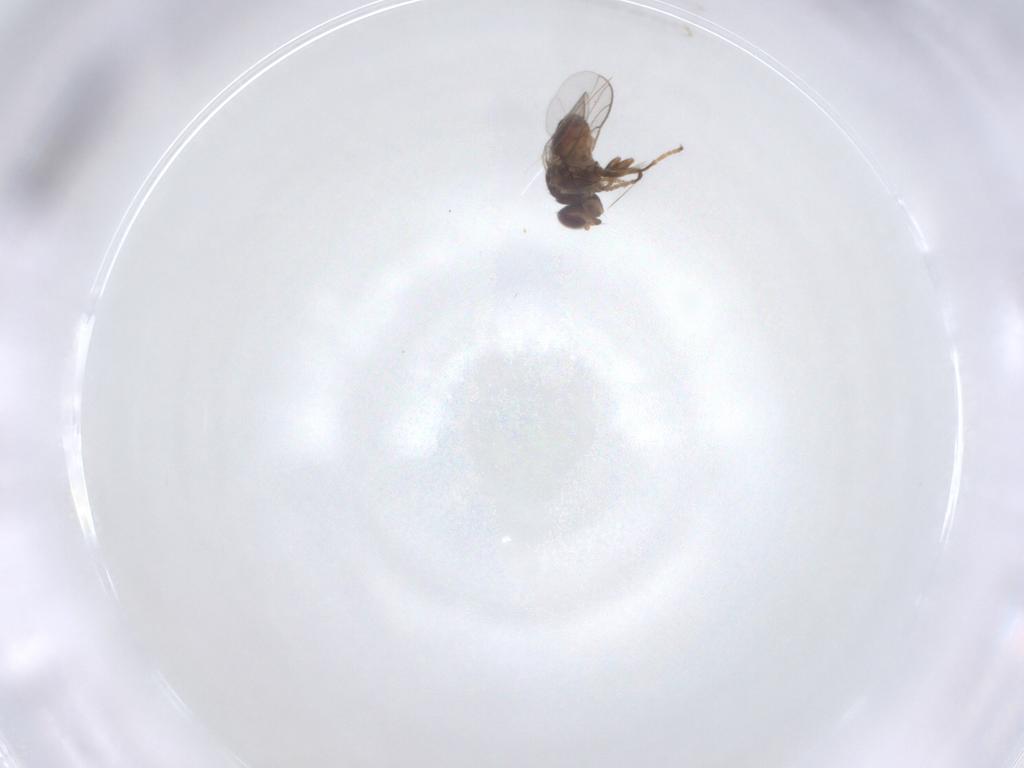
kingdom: Animalia
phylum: Arthropoda
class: Insecta
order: Diptera
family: Chloropidae
